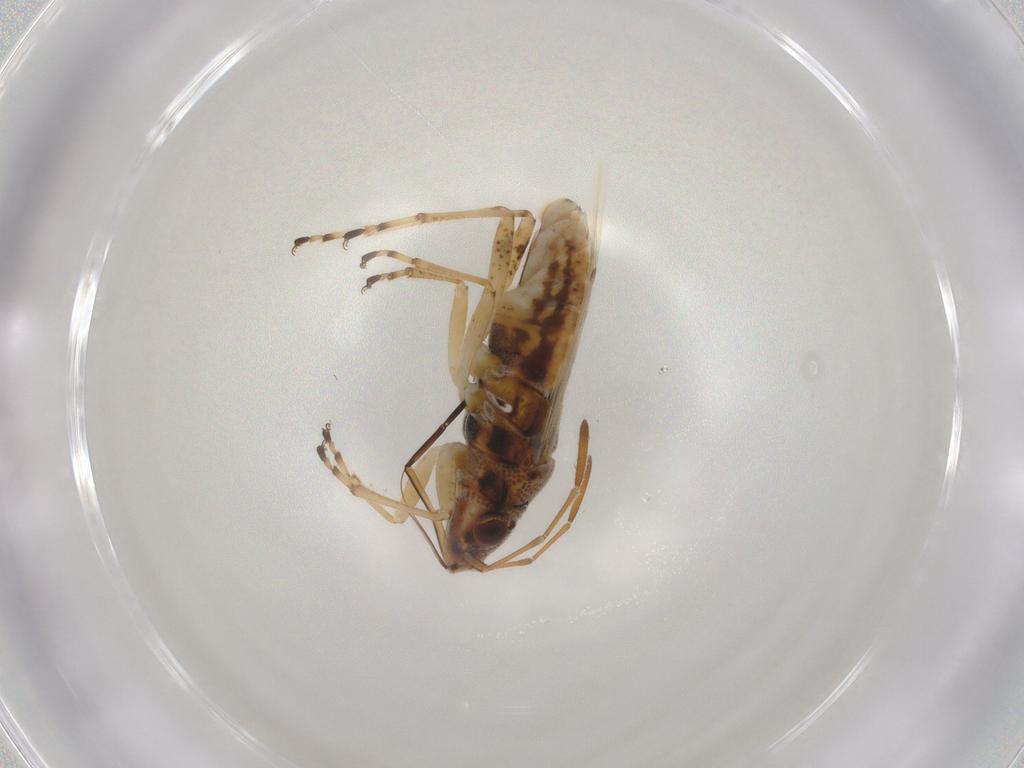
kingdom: Animalia
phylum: Arthropoda
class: Insecta
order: Hemiptera
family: Lygaeidae
